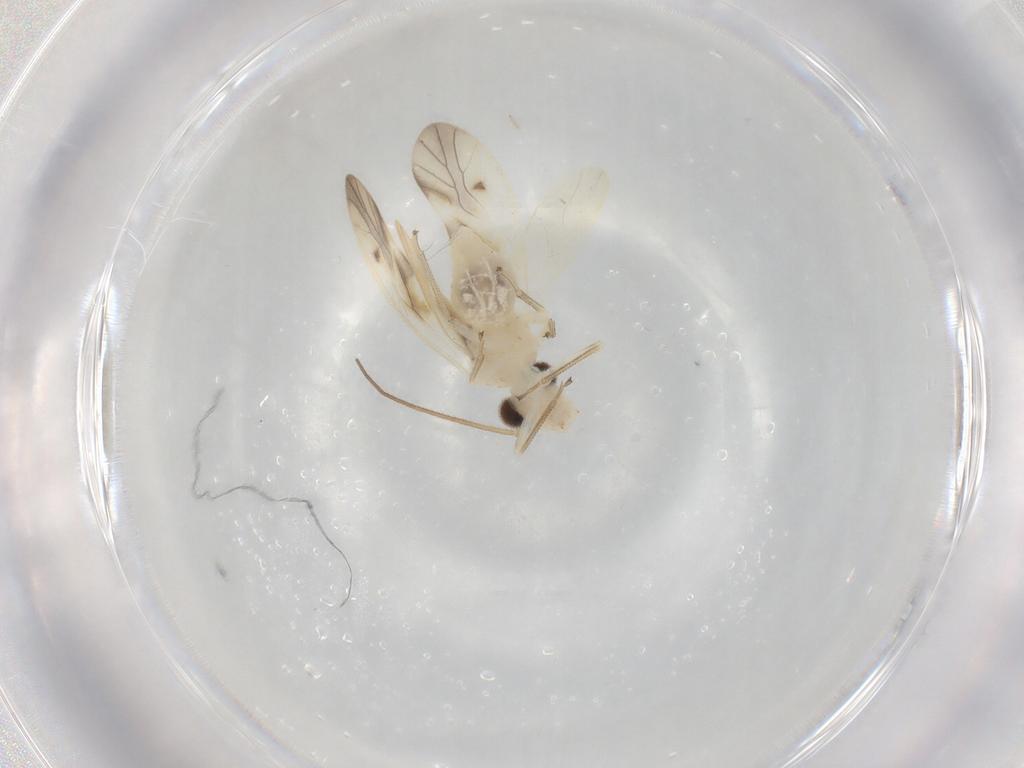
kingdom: Animalia
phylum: Arthropoda
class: Insecta
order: Psocodea
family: Caeciliusidae
